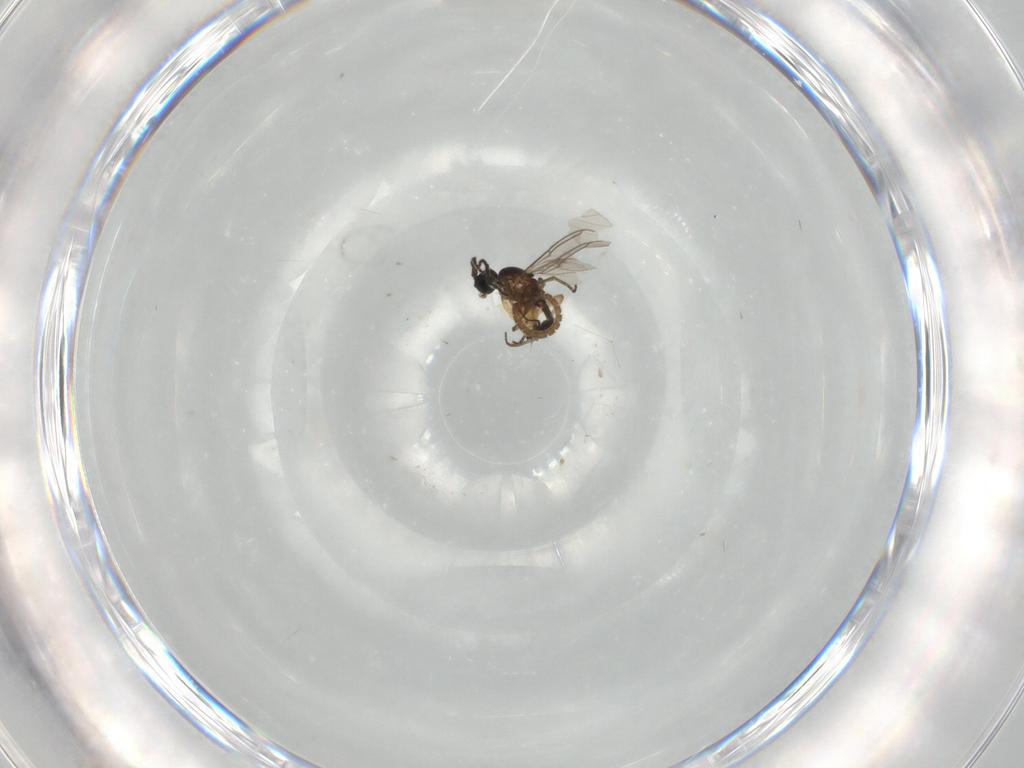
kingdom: Animalia
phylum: Arthropoda
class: Insecta
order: Diptera
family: Sciaridae
